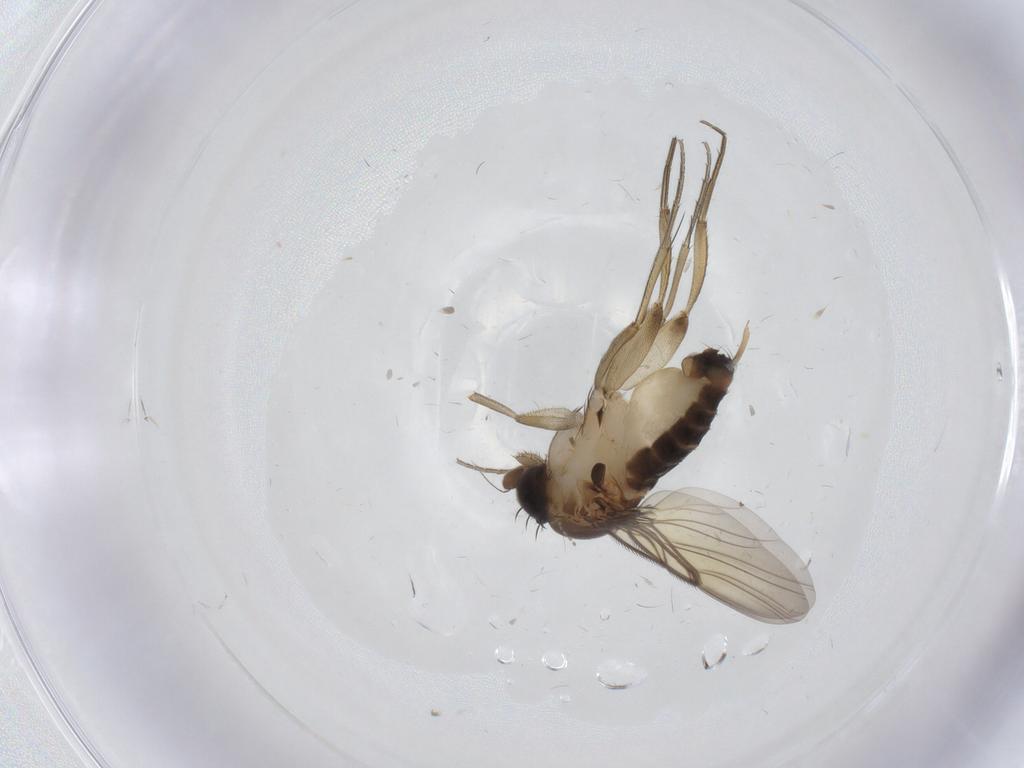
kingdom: Animalia
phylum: Arthropoda
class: Insecta
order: Diptera
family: Phoridae
